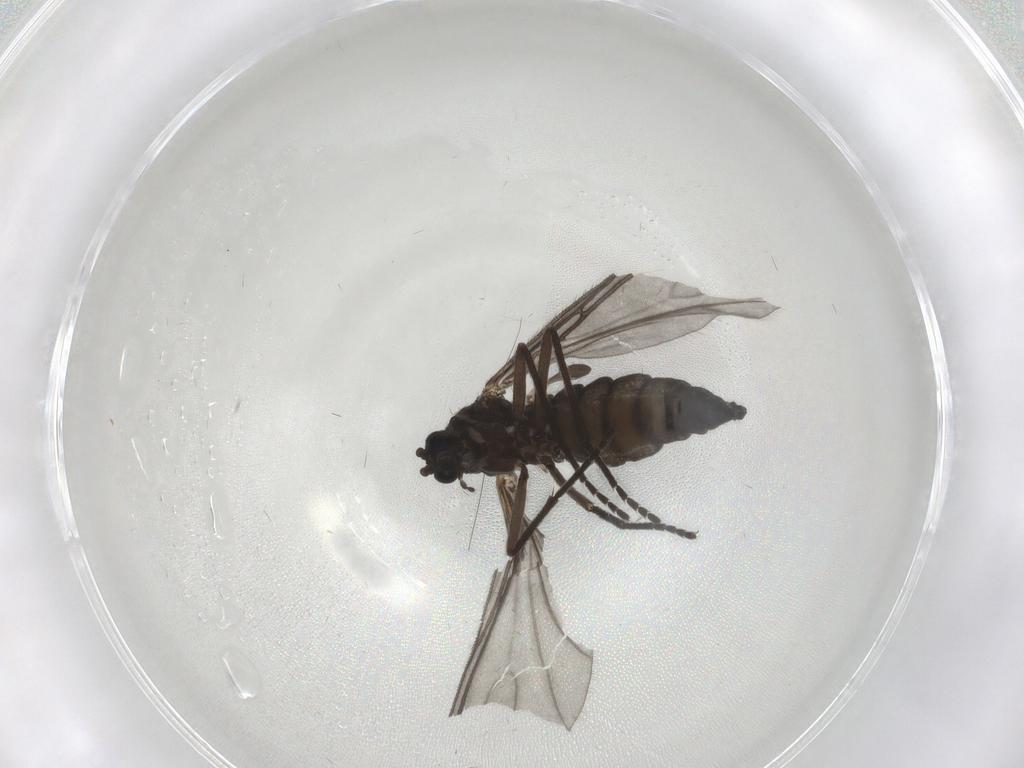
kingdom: Animalia
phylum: Arthropoda
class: Insecta
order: Diptera
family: Sciaridae
